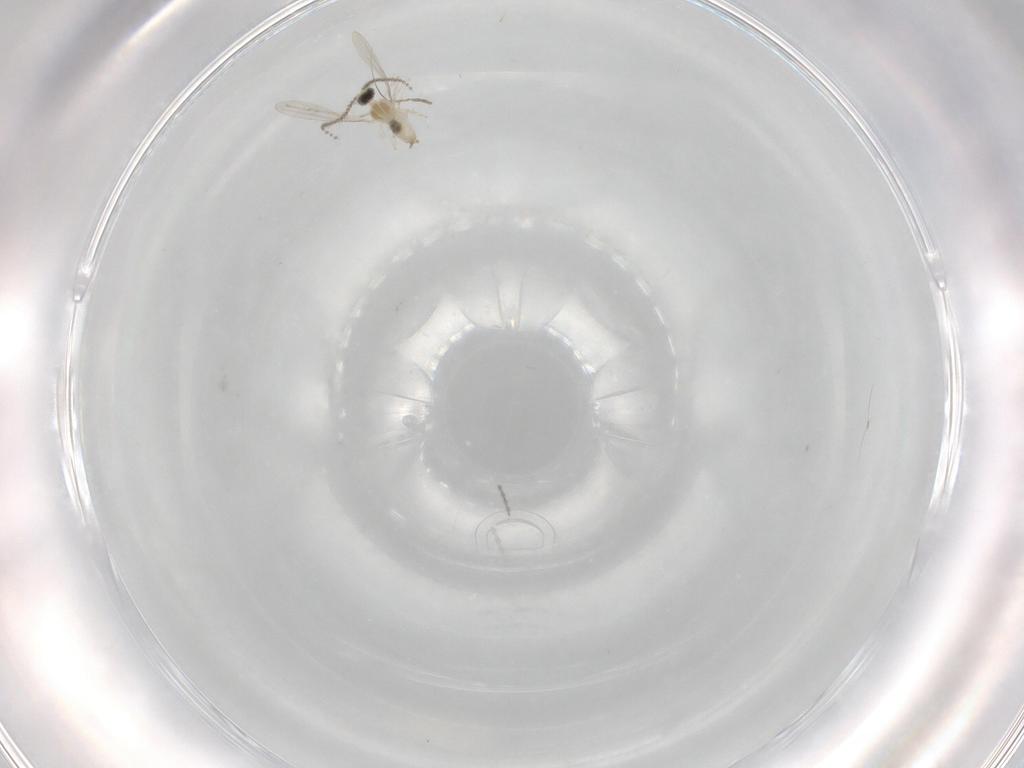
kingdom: Animalia
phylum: Arthropoda
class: Insecta
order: Diptera
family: Cecidomyiidae
